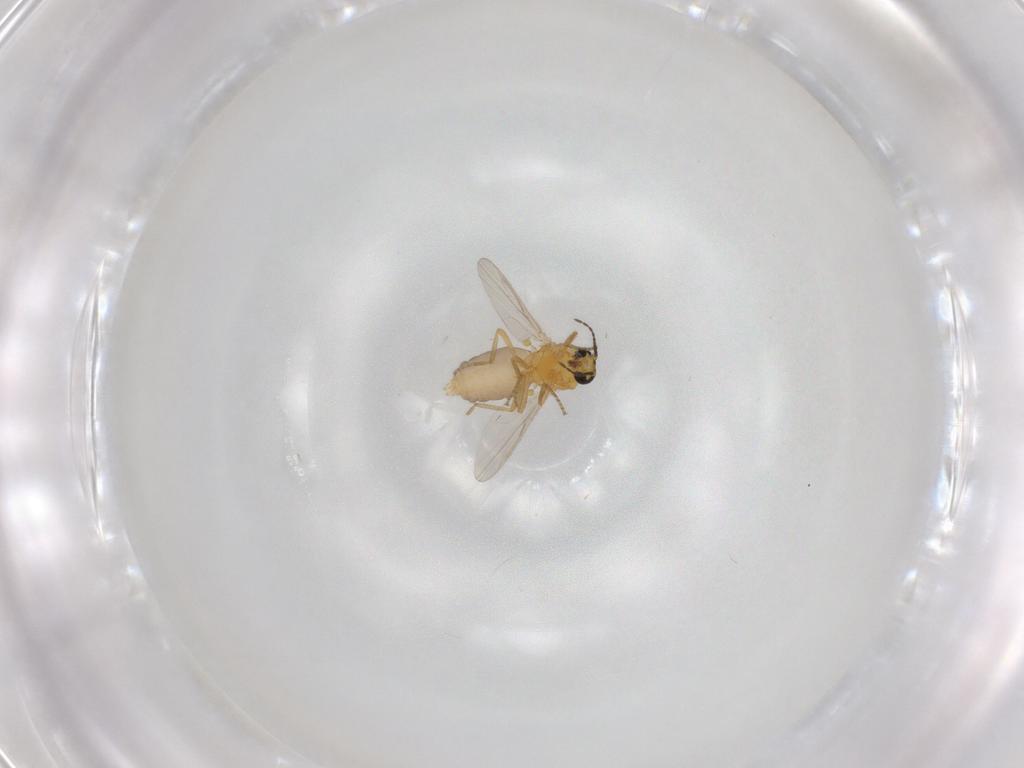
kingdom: Animalia
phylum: Arthropoda
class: Insecta
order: Diptera
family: Ceratopogonidae
